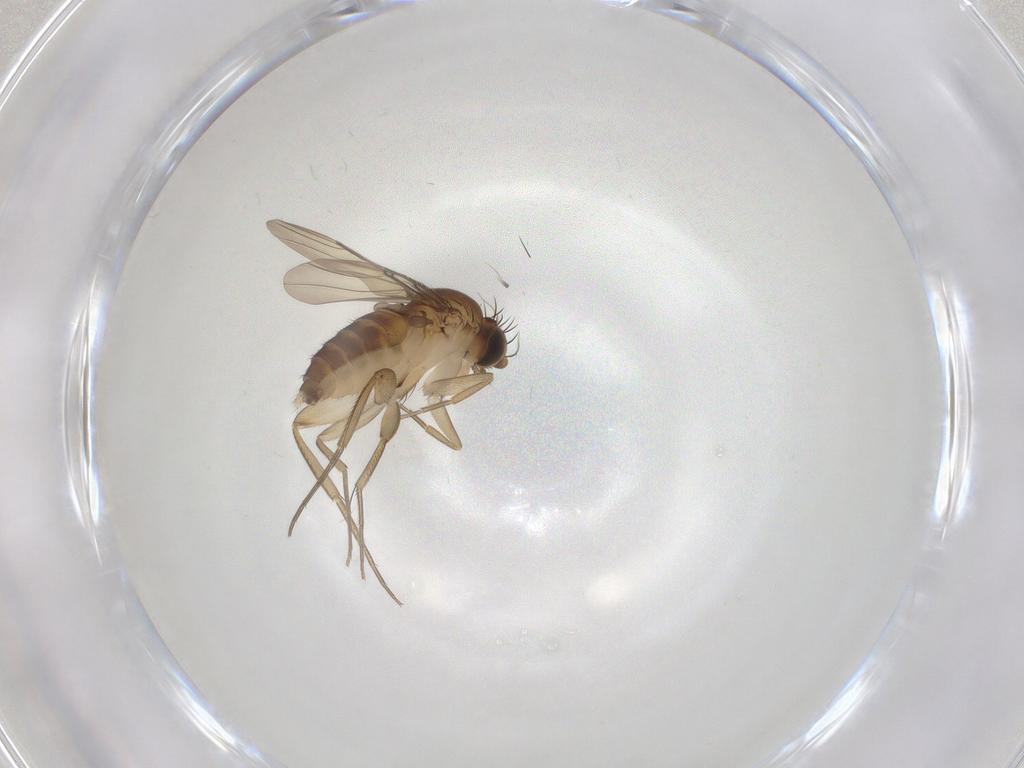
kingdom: Animalia
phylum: Arthropoda
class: Insecta
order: Diptera
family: Phoridae
